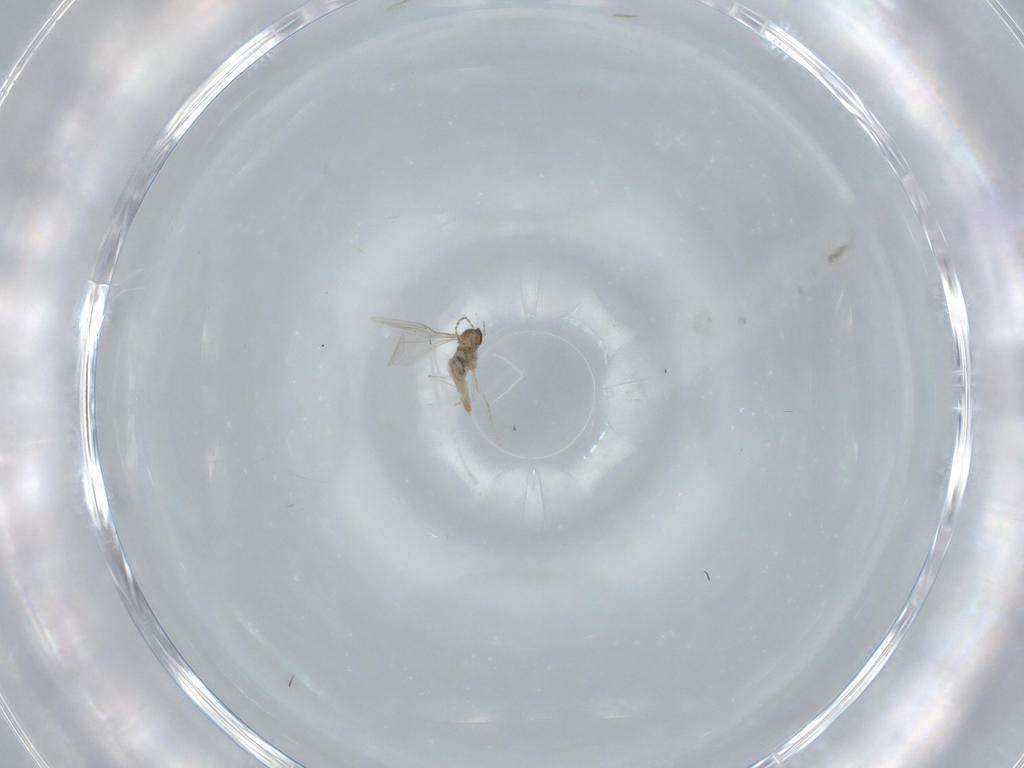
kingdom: Animalia
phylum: Arthropoda
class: Insecta
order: Diptera
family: Cecidomyiidae
